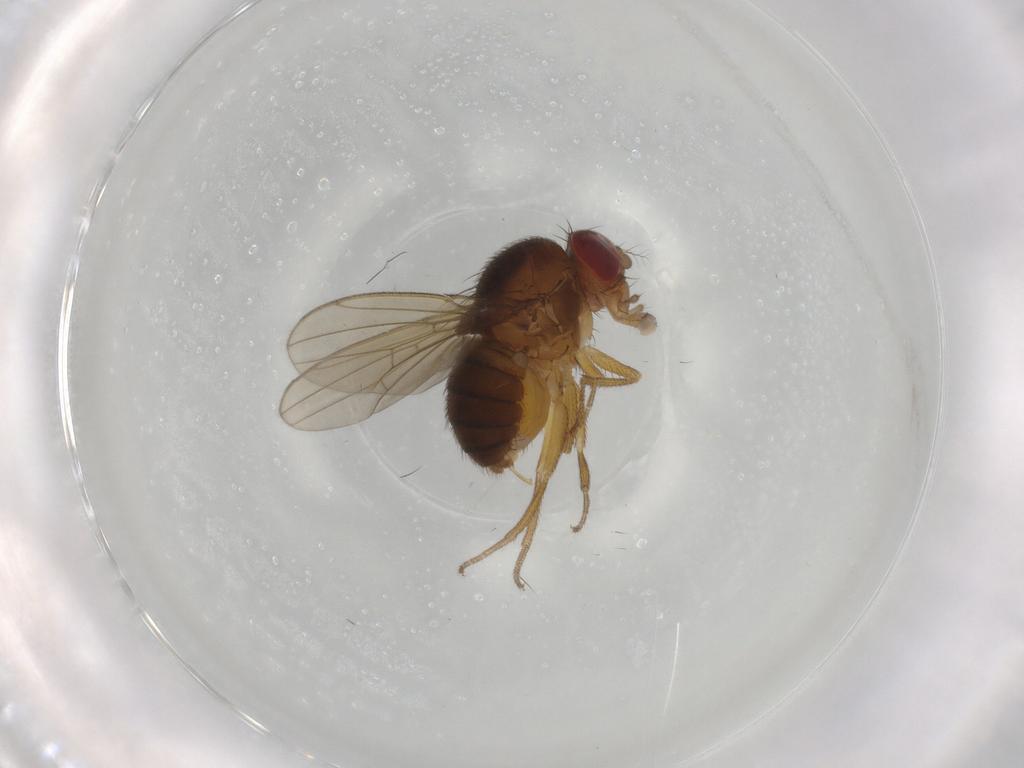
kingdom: Animalia
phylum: Arthropoda
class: Insecta
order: Diptera
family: Drosophilidae
